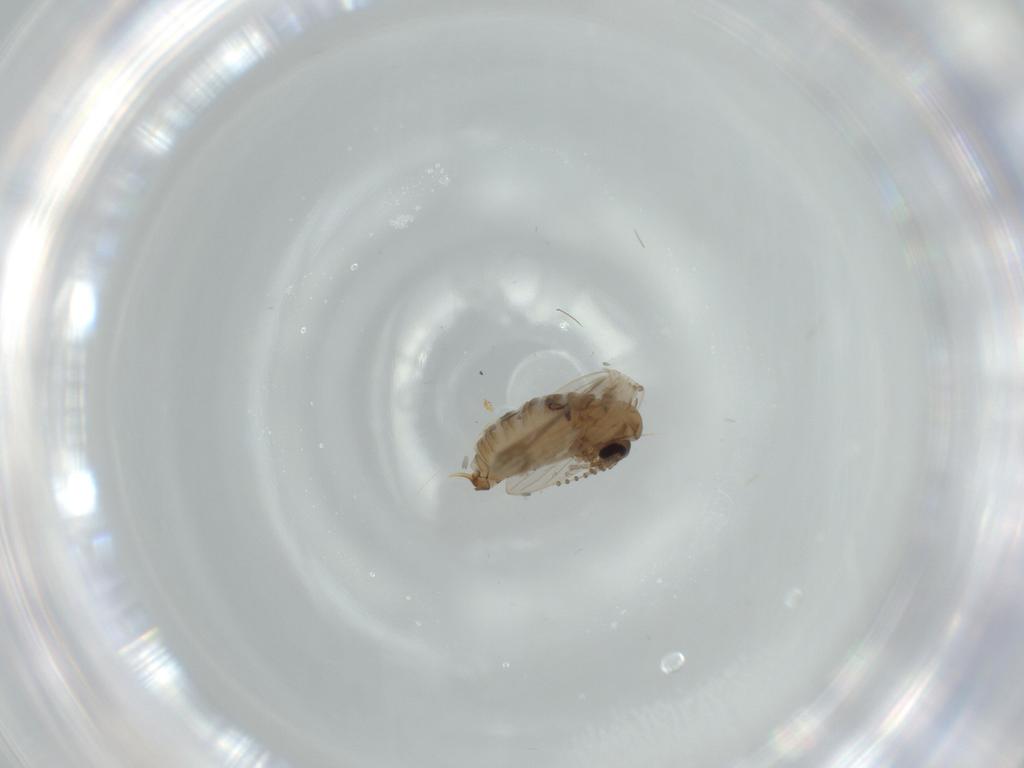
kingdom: Animalia
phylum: Arthropoda
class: Insecta
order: Diptera
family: Psychodidae
